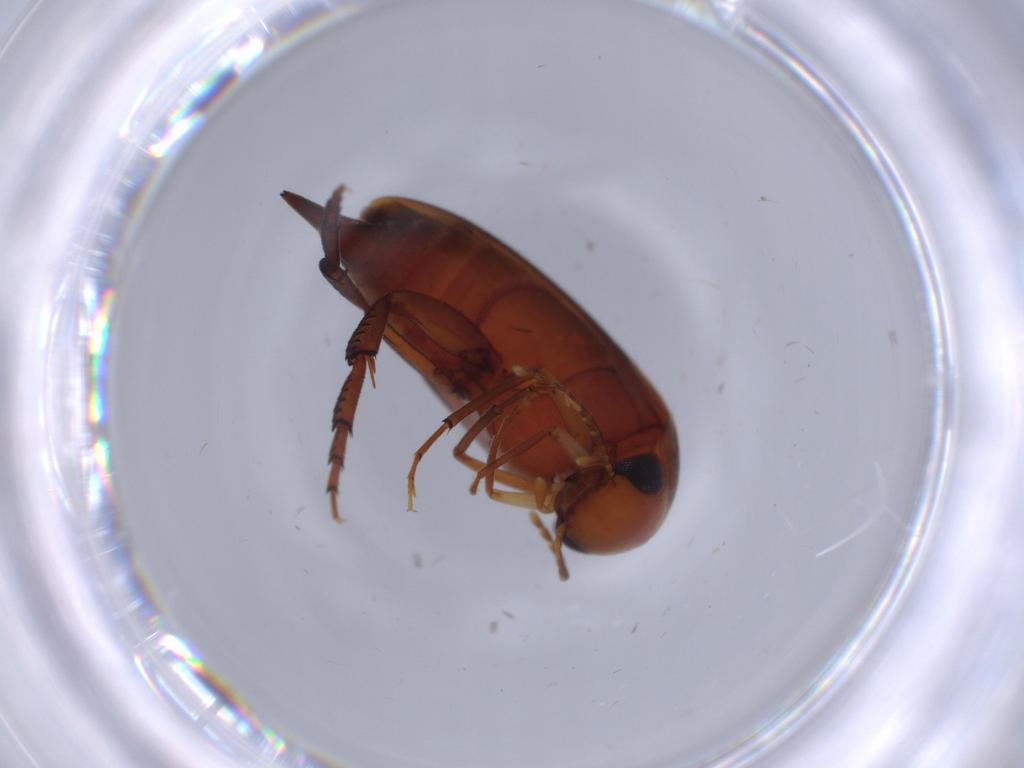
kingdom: Animalia
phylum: Arthropoda
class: Insecta
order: Coleoptera
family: Mordellidae
